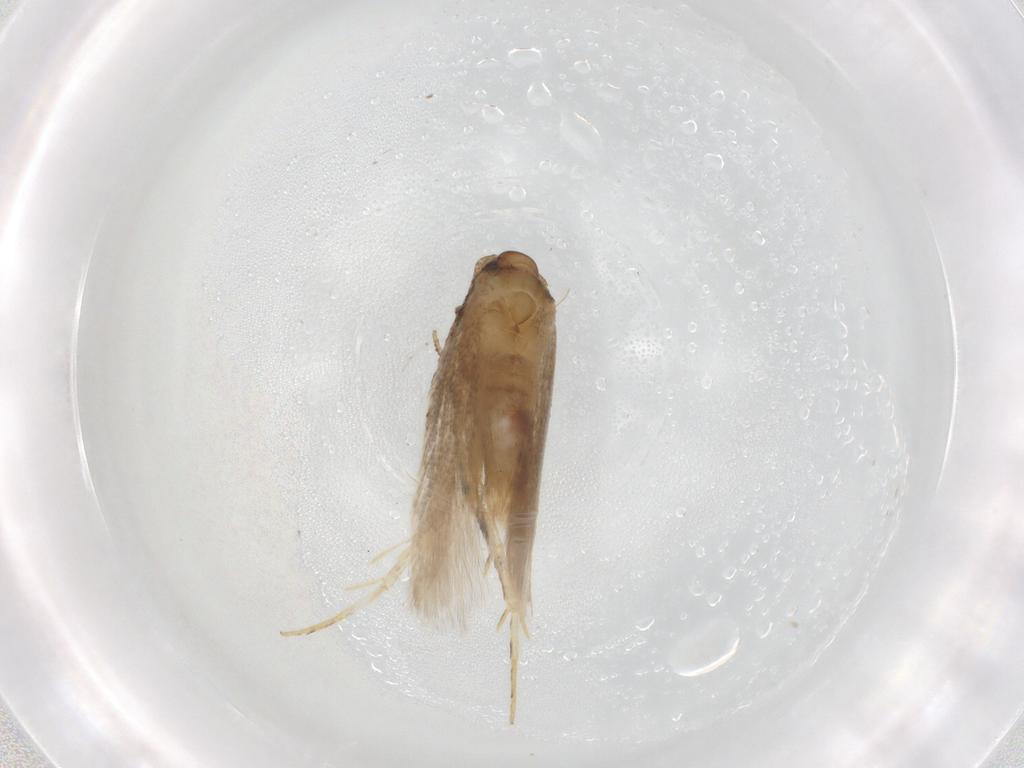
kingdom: Animalia
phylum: Arthropoda
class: Insecta
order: Lepidoptera
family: Gelechiidae
